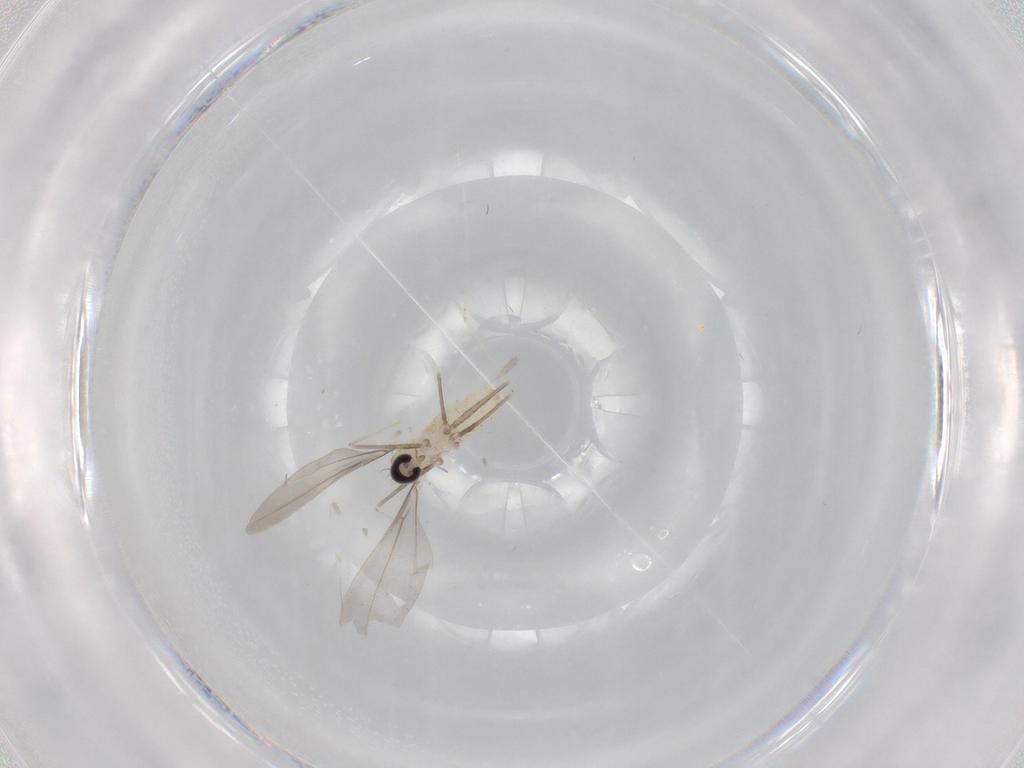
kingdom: Animalia
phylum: Arthropoda
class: Insecta
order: Diptera
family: Cecidomyiidae
